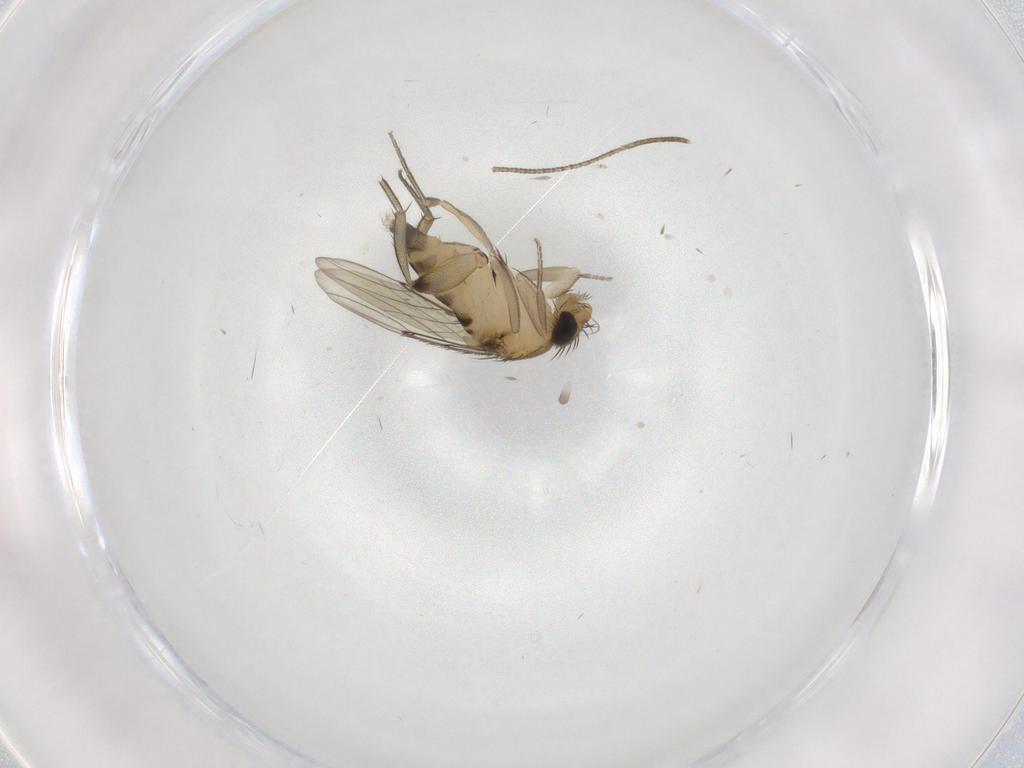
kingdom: Animalia
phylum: Arthropoda
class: Insecta
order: Diptera
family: Phoridae
